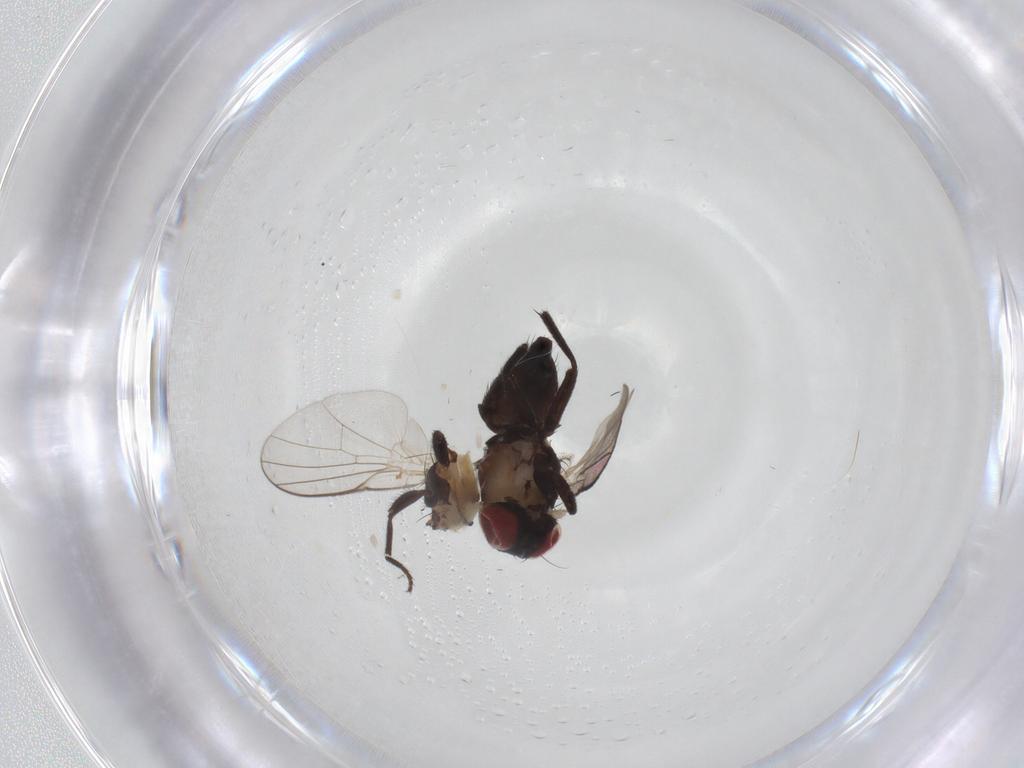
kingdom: Animalia
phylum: Arthropoda
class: Insecta
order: Diptera
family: Agromyzidae
